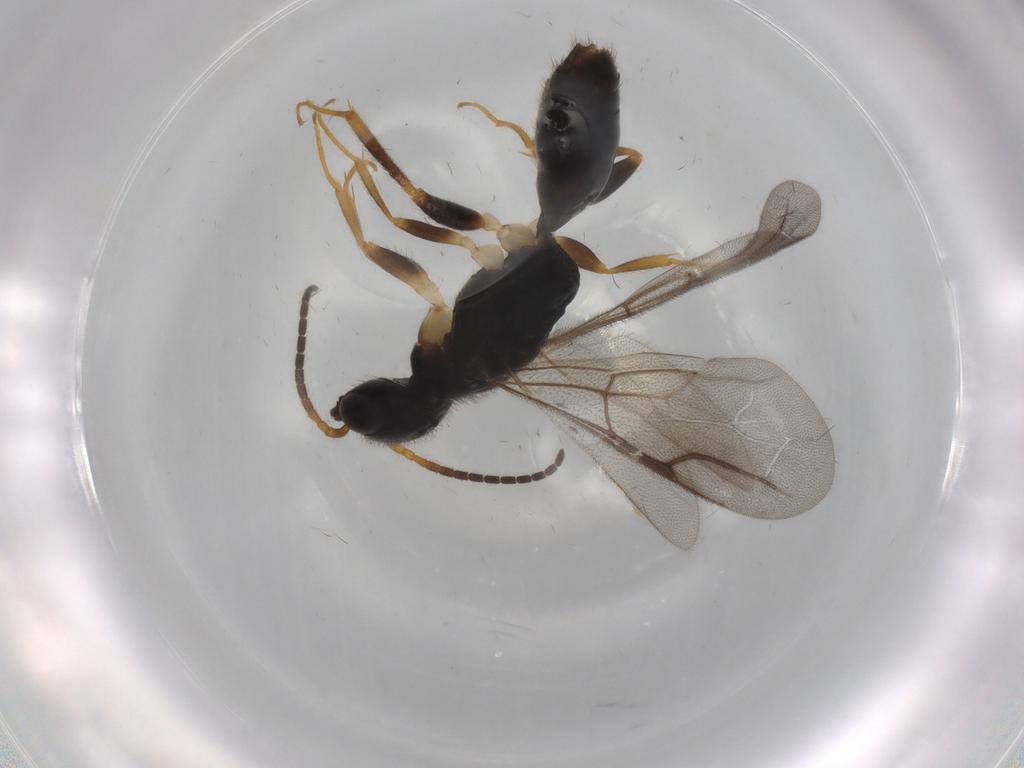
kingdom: Animalia
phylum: Arthropoda
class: Insecta
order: Hymenoptera
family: Bethylidae
